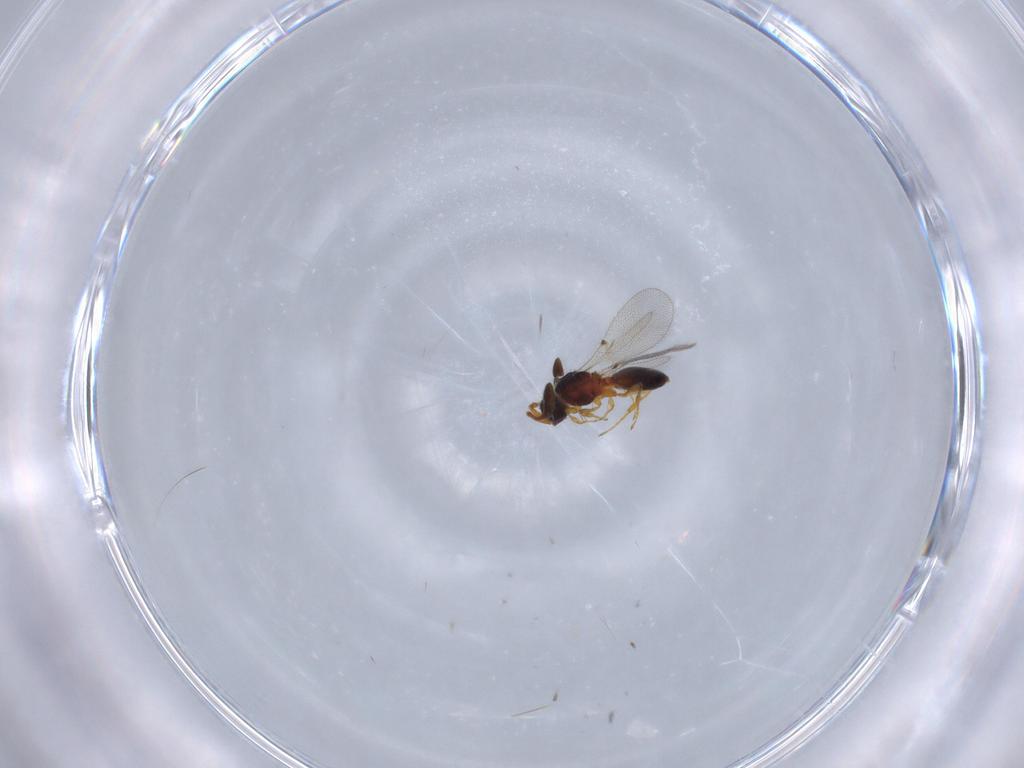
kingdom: Animalia
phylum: Arthropoda
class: Insecta
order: Hymenoptera
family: Diapriidae
